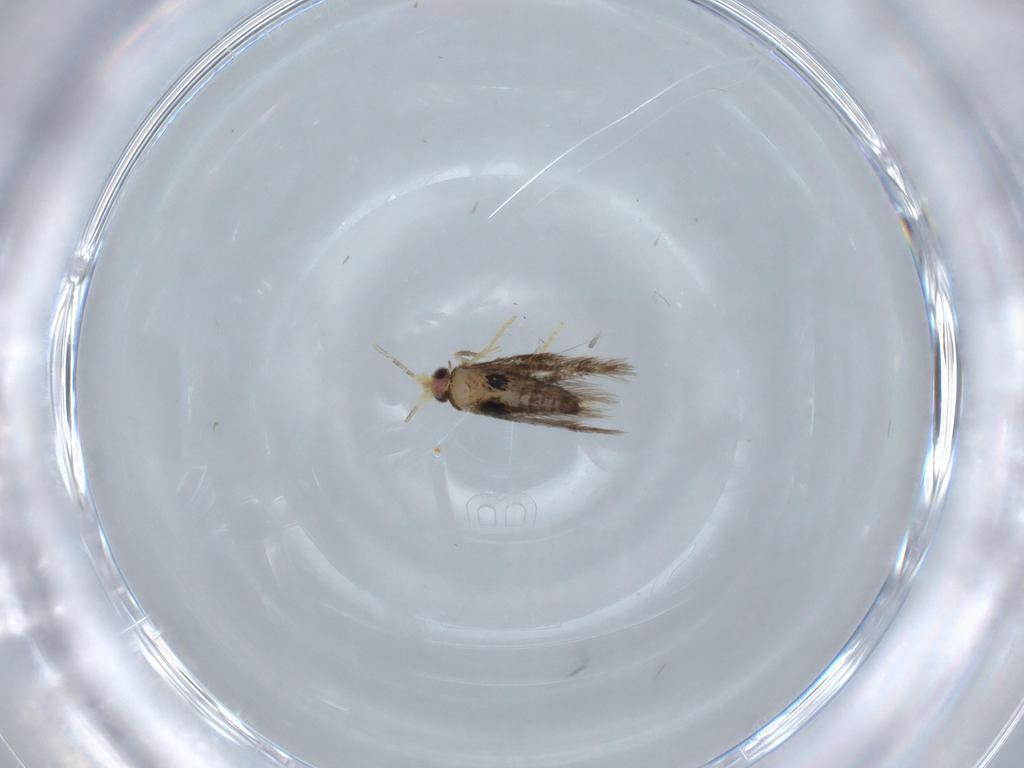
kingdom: Animalia
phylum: Arthropoda
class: Insecta
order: Lepidoptera
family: Nepticulidae
